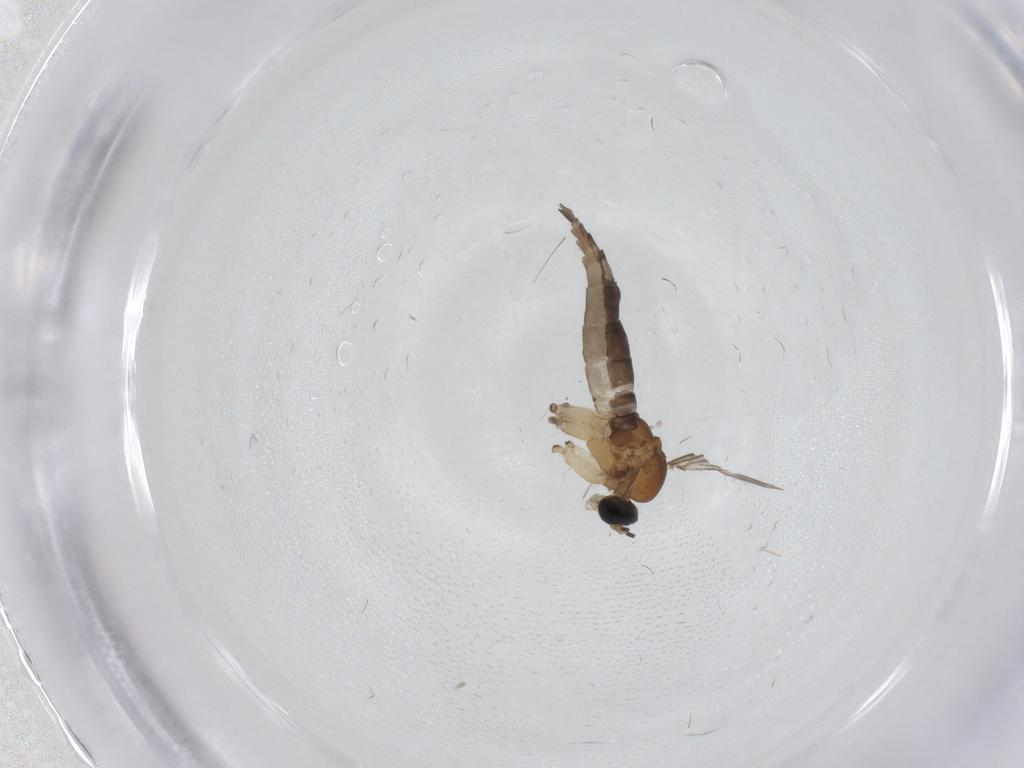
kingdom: Animalia
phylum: Arthropoda
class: Insecta
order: Diptera
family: Sciaridae
